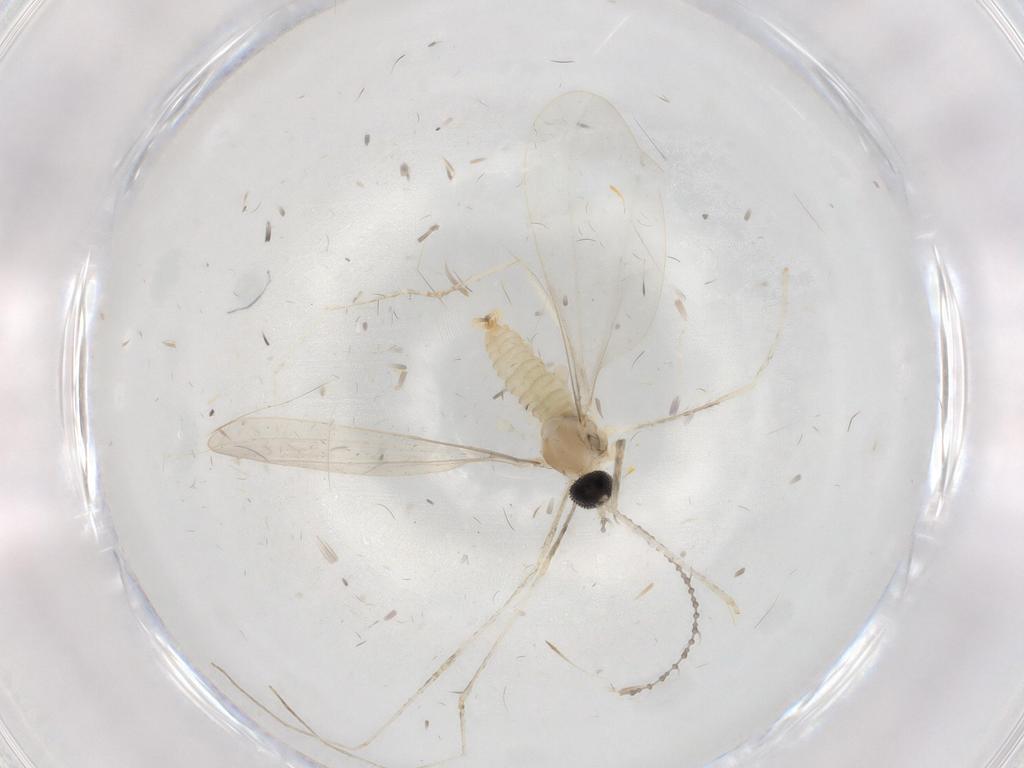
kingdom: Animalia
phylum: Arthropoda
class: Insecta
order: Diptera
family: Cecidomyiidae
